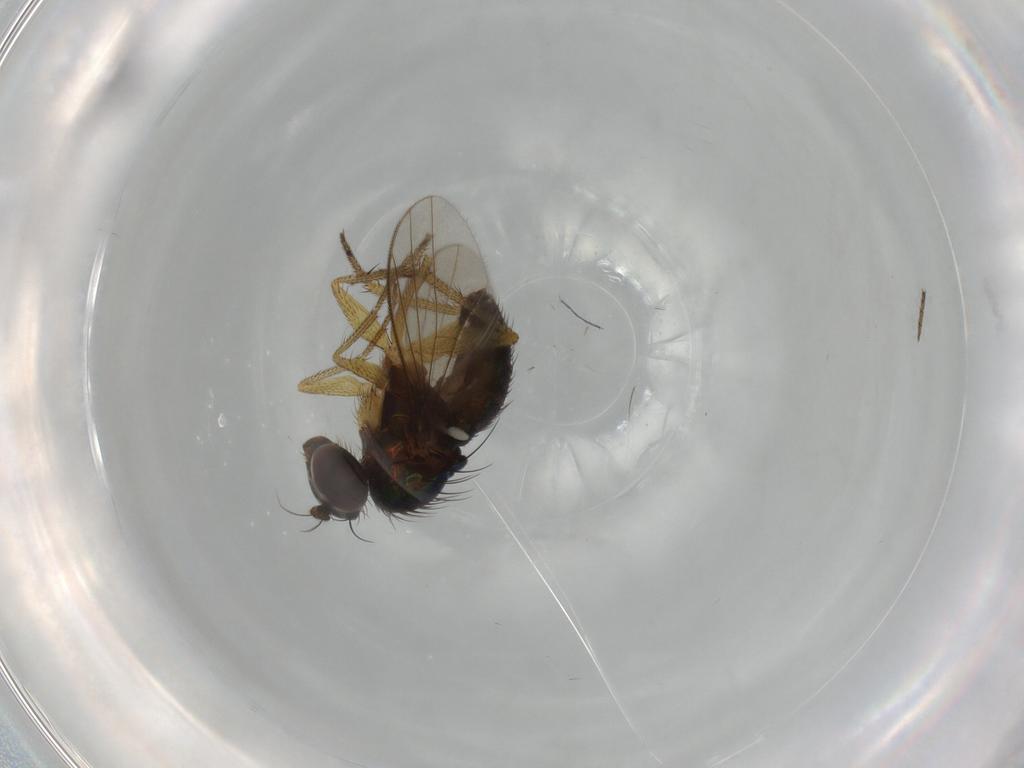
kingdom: Animalia
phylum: Arthropoda
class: Insecta
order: Diptera
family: Dolichopodidae
